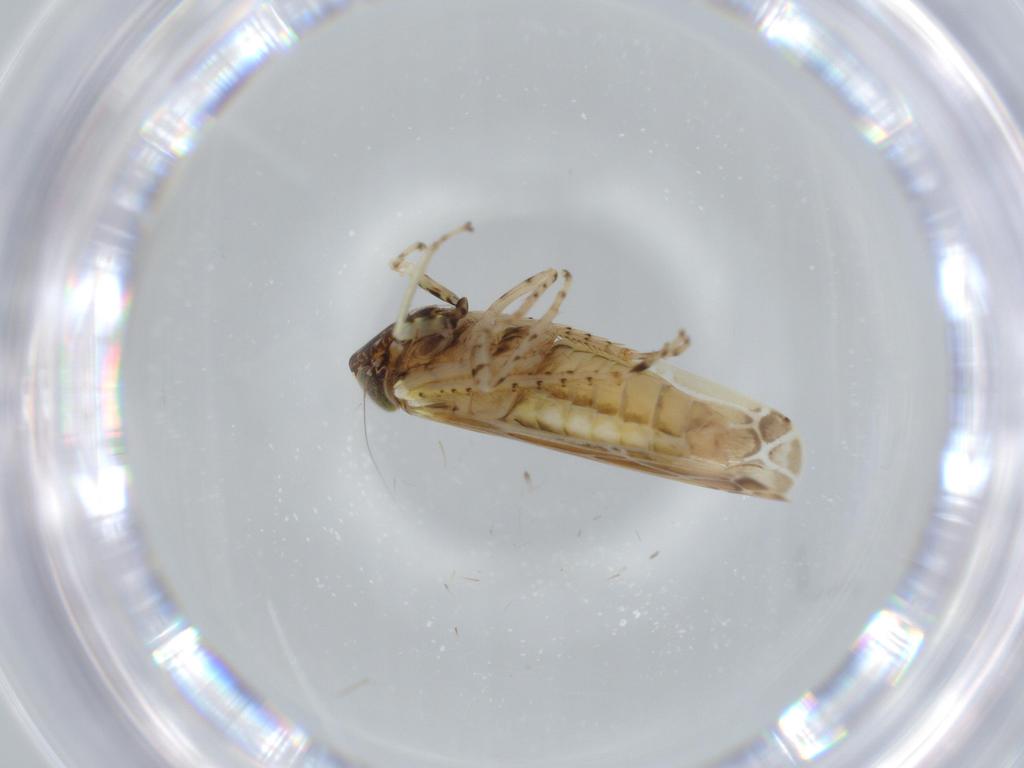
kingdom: Animalia
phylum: Arthropoda
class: Insecta
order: Hemiptera
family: Cicadellidae
